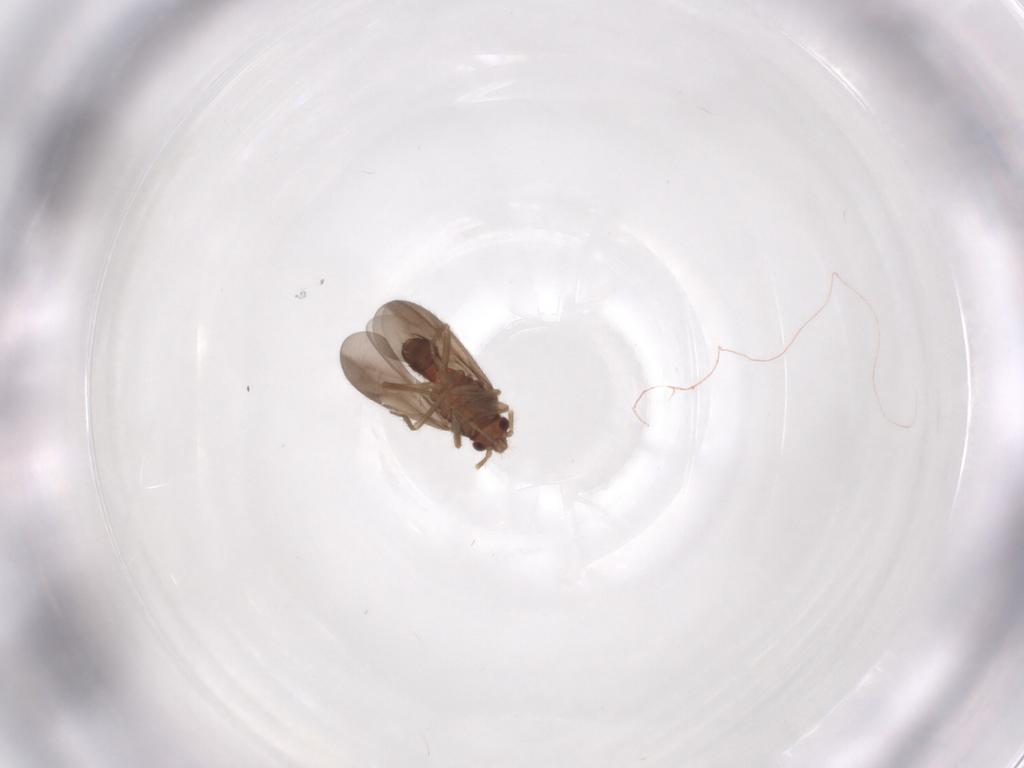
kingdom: Animalia
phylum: Arthropoda
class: Insecta
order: Hemiptera
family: Ceratocombidae
